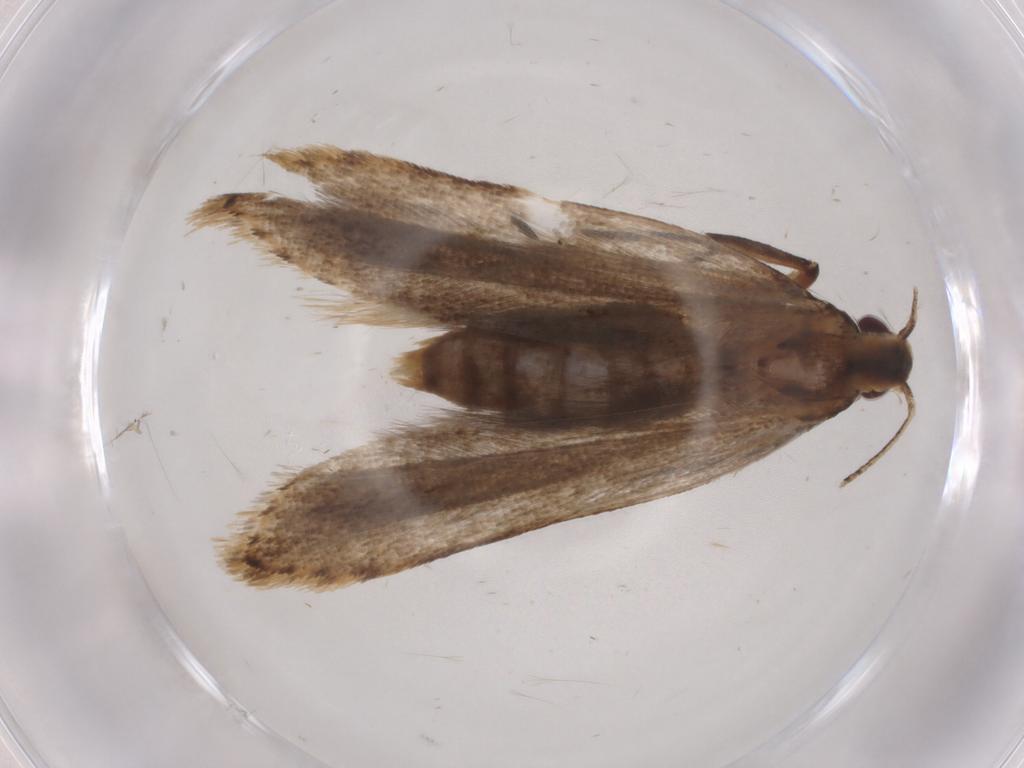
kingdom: Animalia
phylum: Arthropoda
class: Insecta
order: Lepidoptera
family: Gelechiidae
